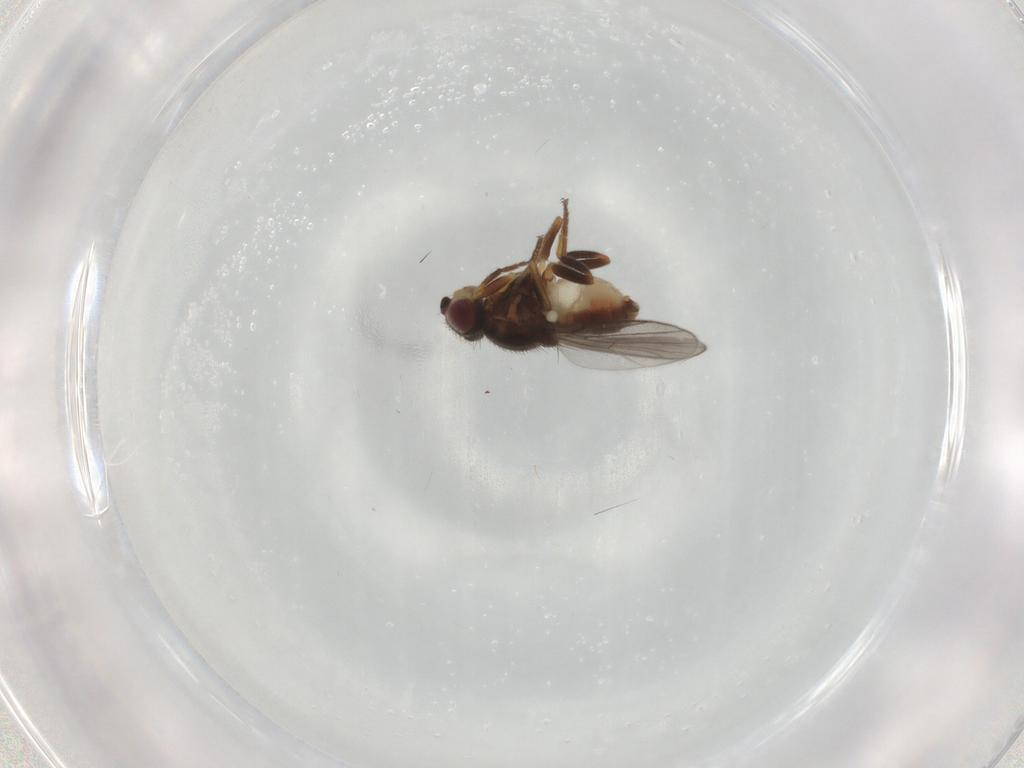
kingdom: Animalia
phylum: Arthropoda
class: Insecta
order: Diptera
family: Chloropidae
